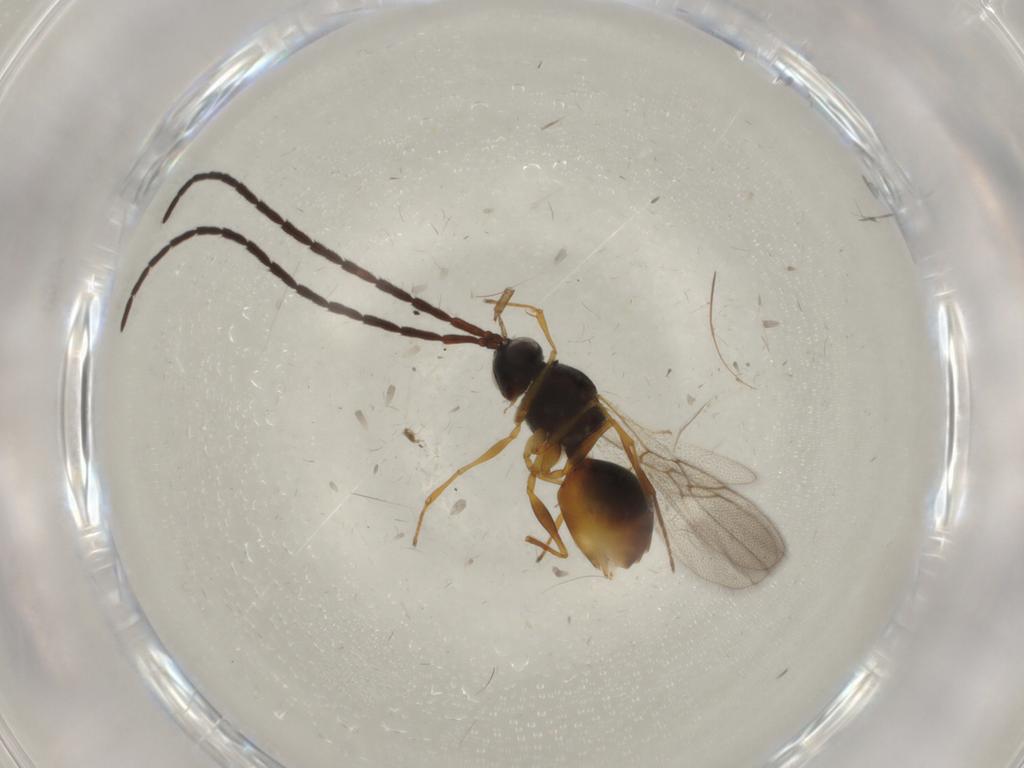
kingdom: Animalia
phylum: Arthropoda
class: Insecta
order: Hymenoptera
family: Figitidae
